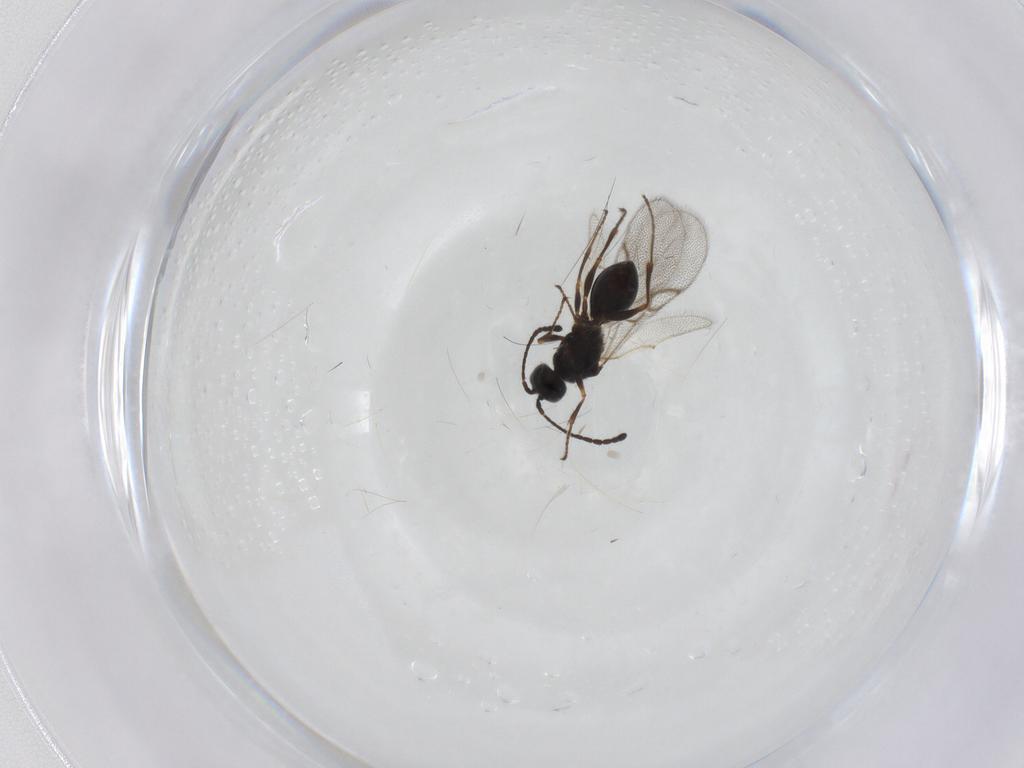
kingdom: Animalia
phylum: Arthropoda
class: Insecta
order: Hymenoptera
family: Figitidae
